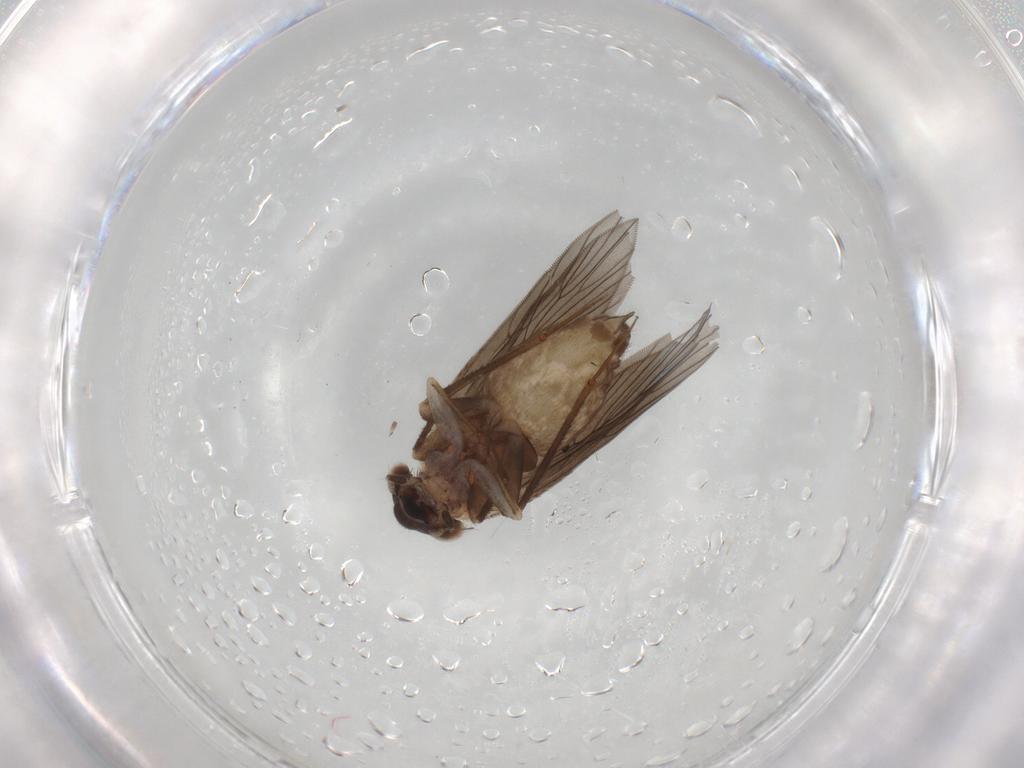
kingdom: Animalia
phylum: Arthropoda
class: Insecta
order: Psocodea
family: Lepidopsocidae
